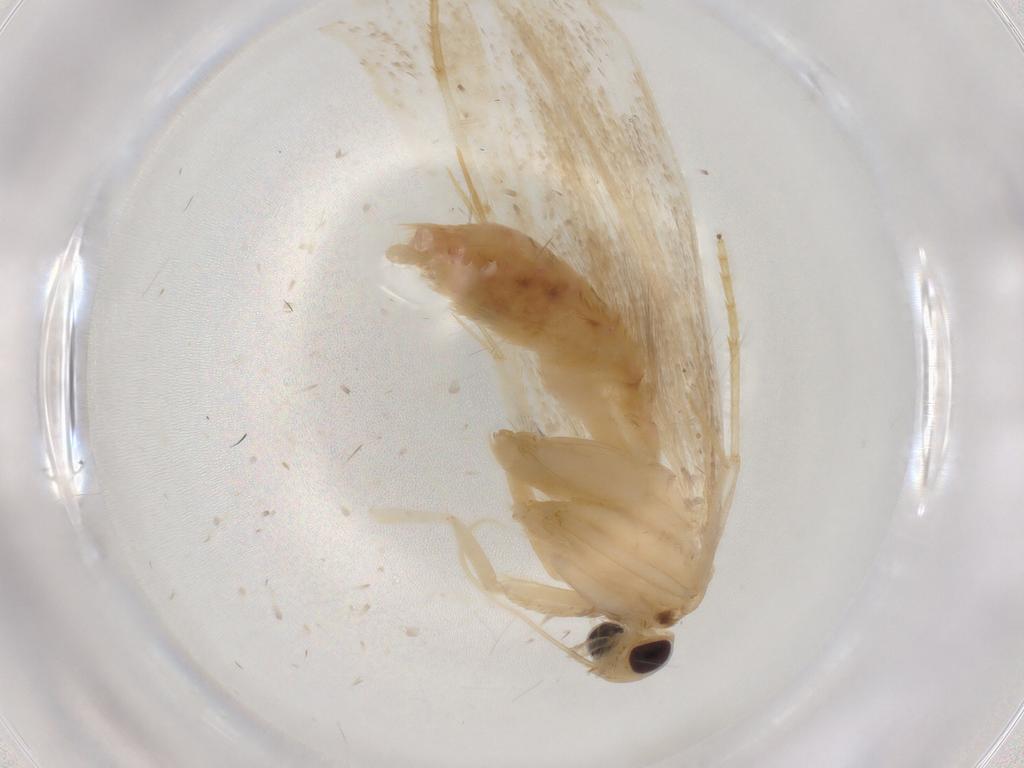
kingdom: Animalia
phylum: Arthropoda
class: Insecta
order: Lepidoptera
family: Lecithoceridae
